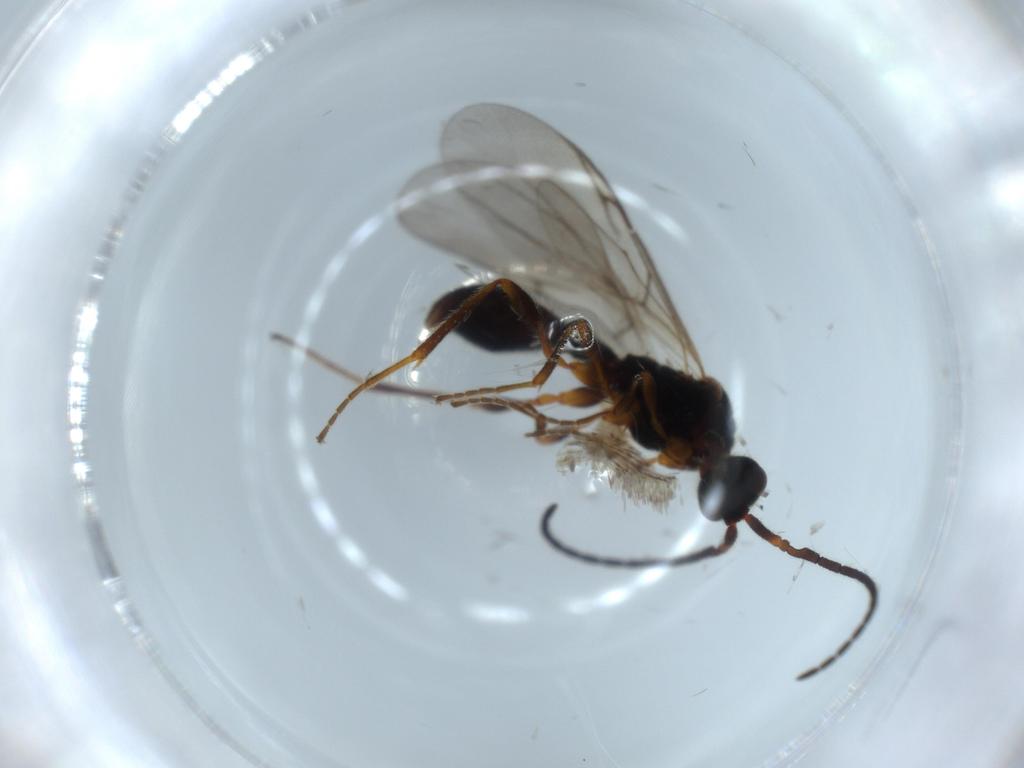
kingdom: Animalia
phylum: Arthropoda
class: Insecta
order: Hymenoptera
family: Diapriidae
